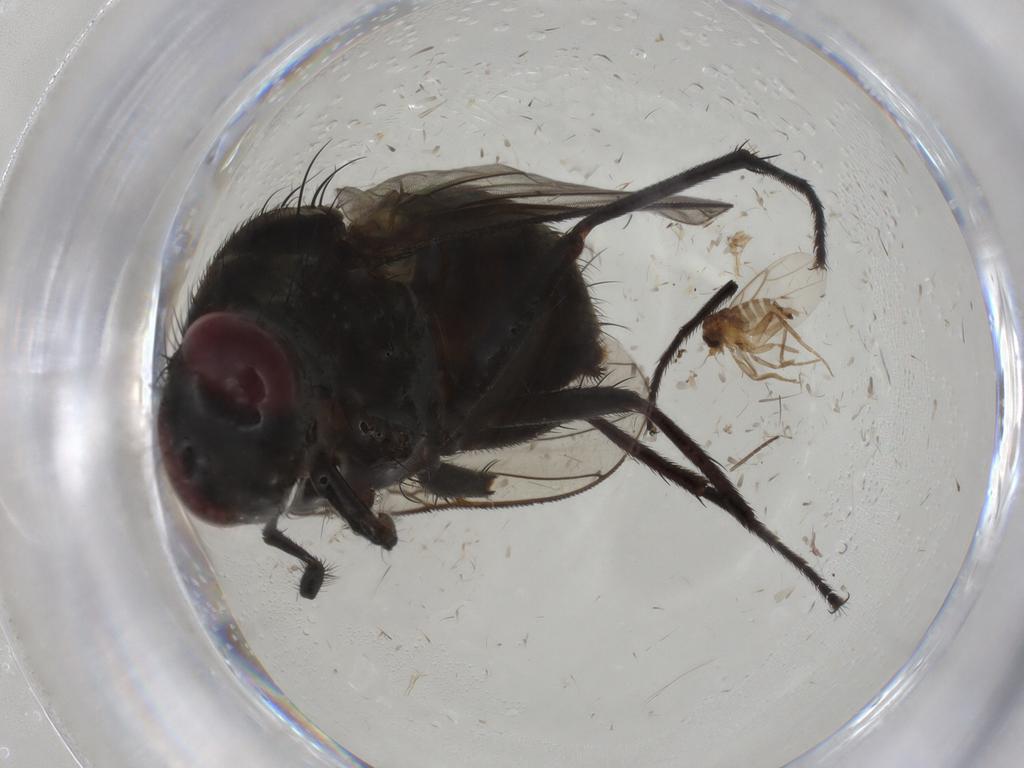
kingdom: Animalia
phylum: Arthropoda
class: Insecta
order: Diptera
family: Muscidae
